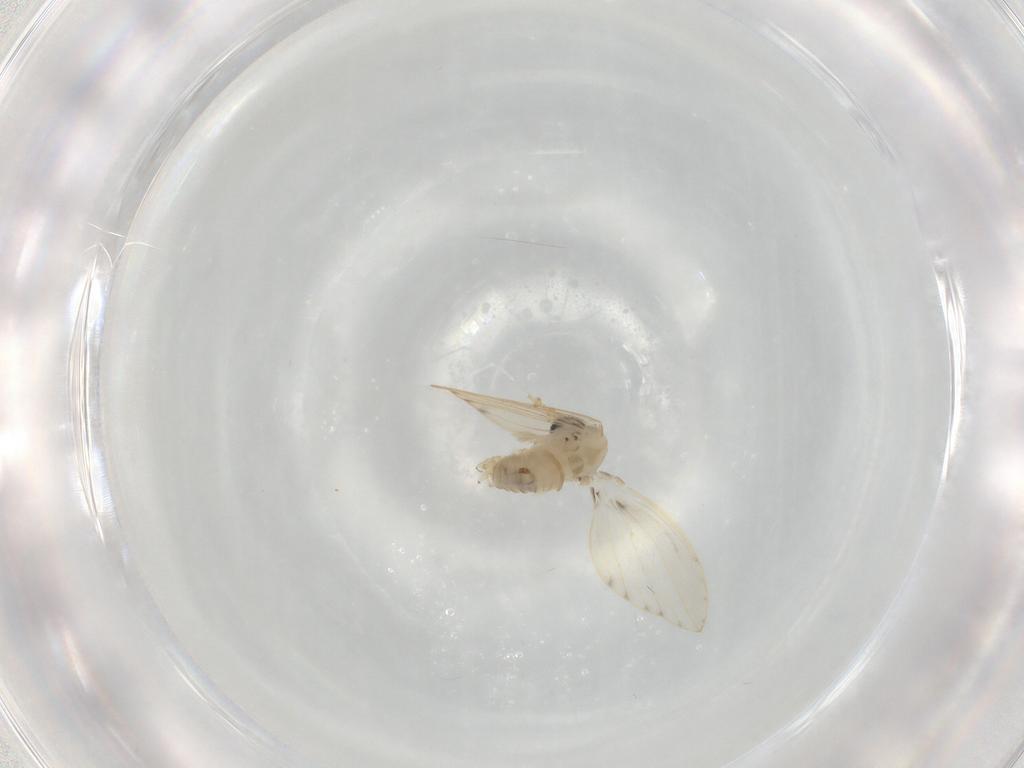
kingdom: Animalia
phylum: Arthropoda
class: Insecta
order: Diptera
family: Psychodidae
